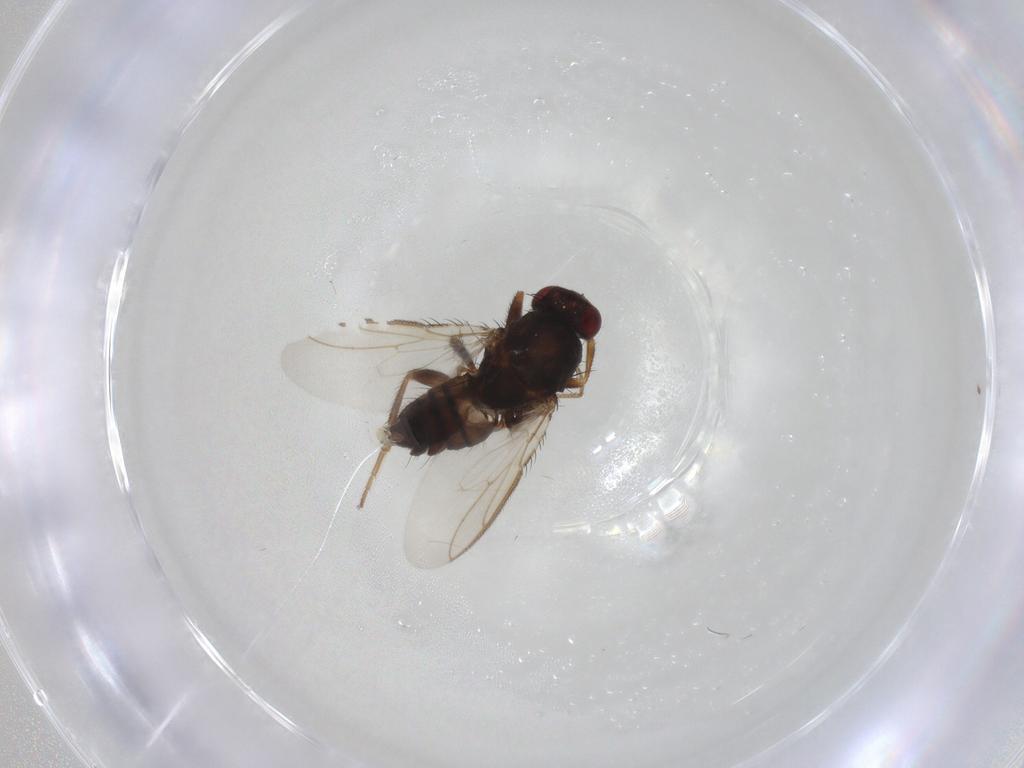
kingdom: Animalia
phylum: Arthropoda
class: Insecta
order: Diptera
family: Sphaeroceridae
